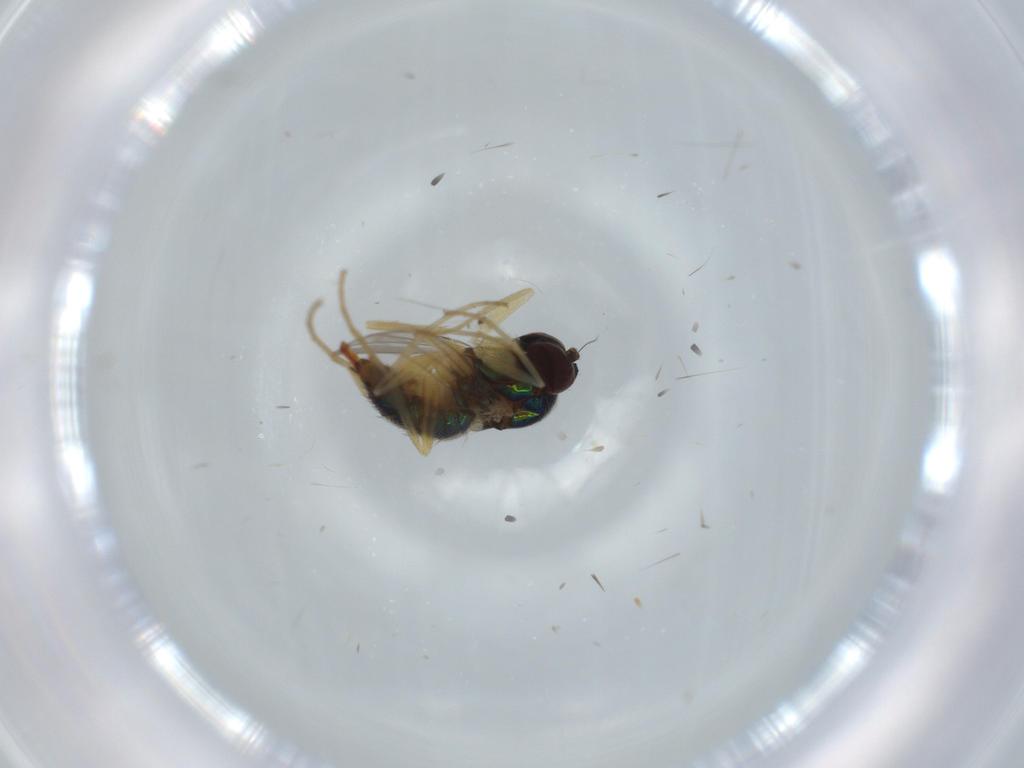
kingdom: Animalia
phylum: Arthropoda
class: Insecta
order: Diptera
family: Dolichopodidae
